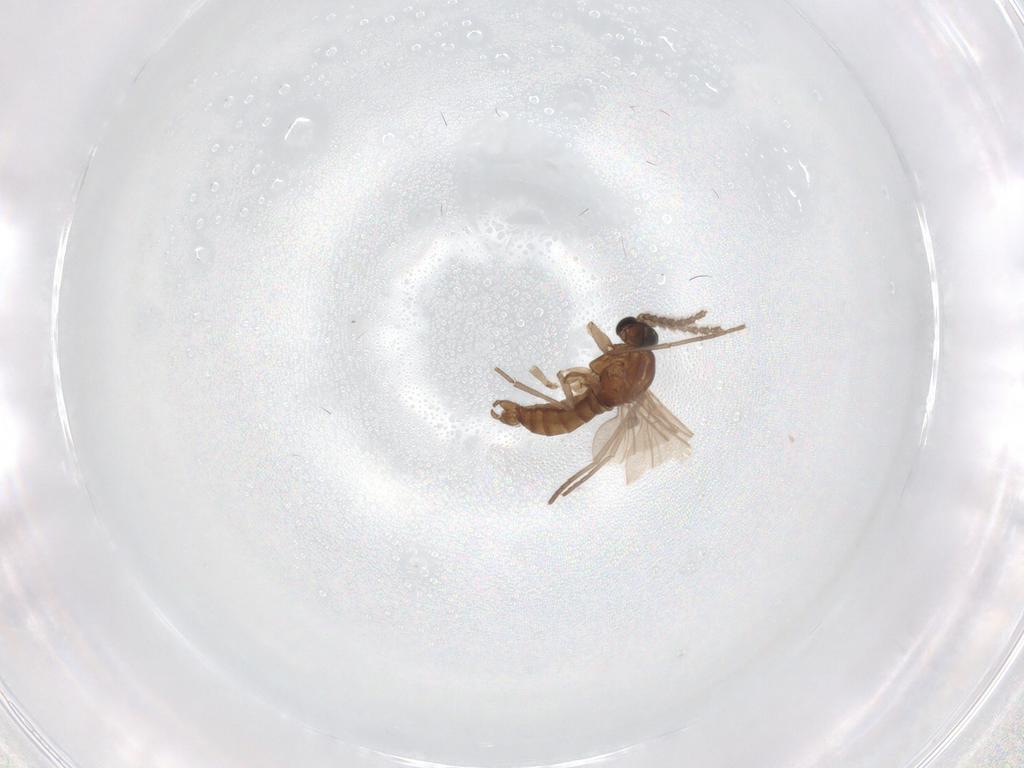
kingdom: Animalia
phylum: Arthropoda
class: Insecta
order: Diptera
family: Sciaridae
